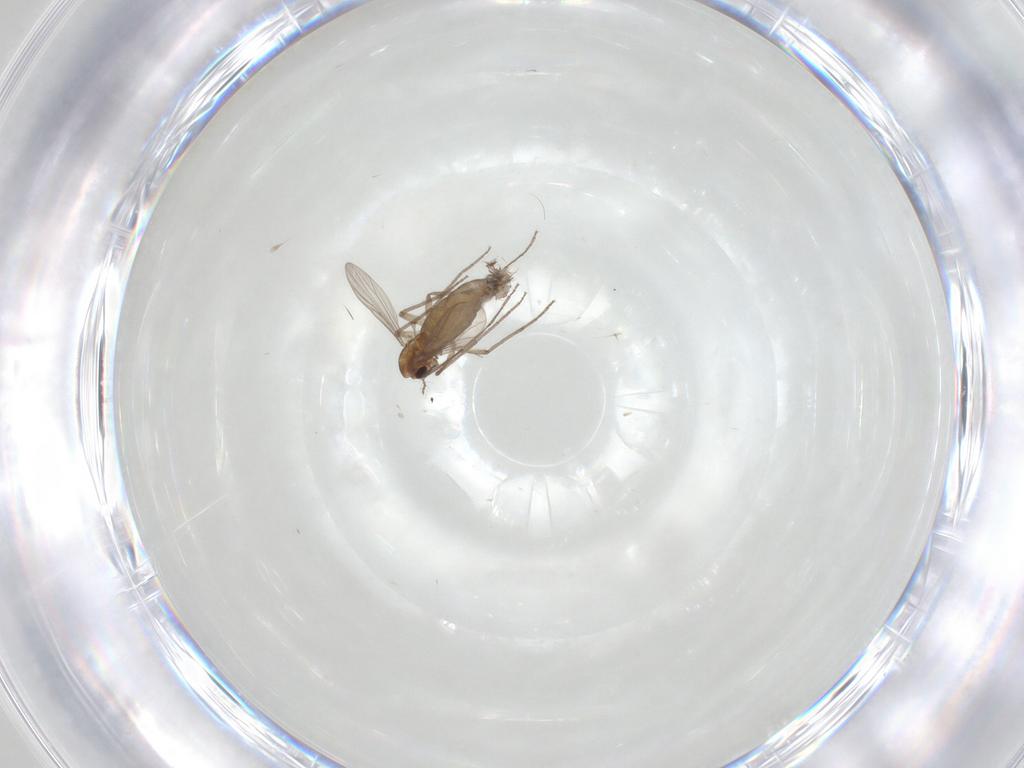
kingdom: Animalia
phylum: Arthropoda
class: Insecta
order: Diptera
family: Chironomidae
